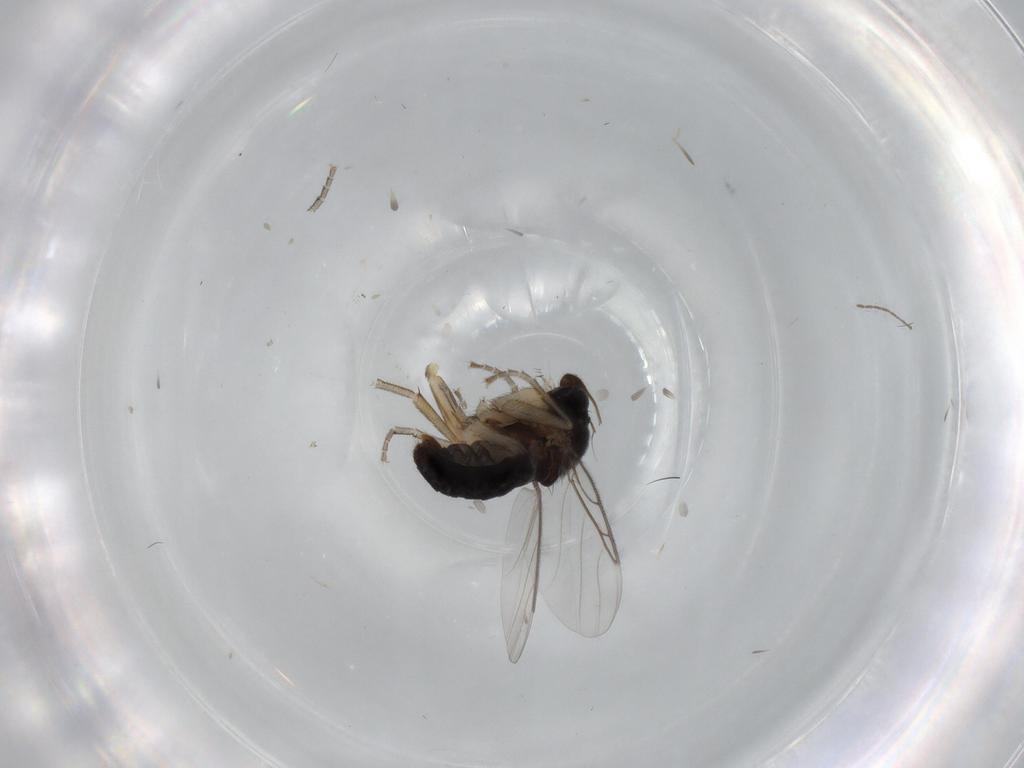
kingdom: Animalia
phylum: Arthropoda
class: Insecta
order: Diptera
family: Phoridae
